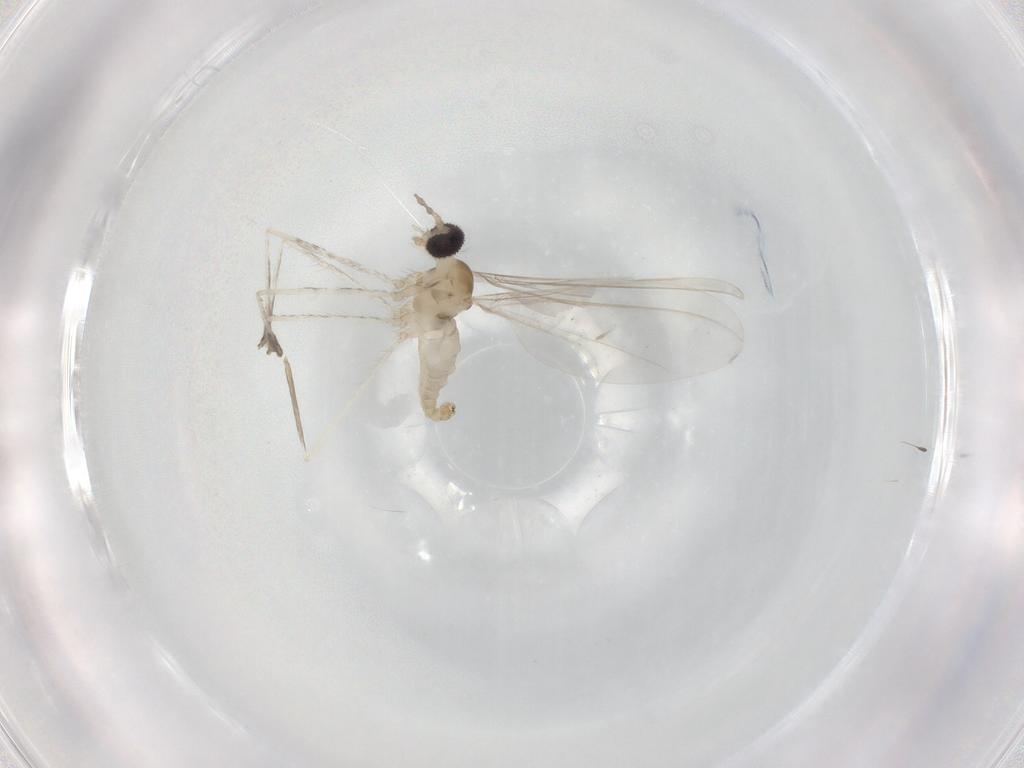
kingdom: Animalia
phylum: Arthropoda
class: Insecta
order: Diptera
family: Cecidomyiidae
